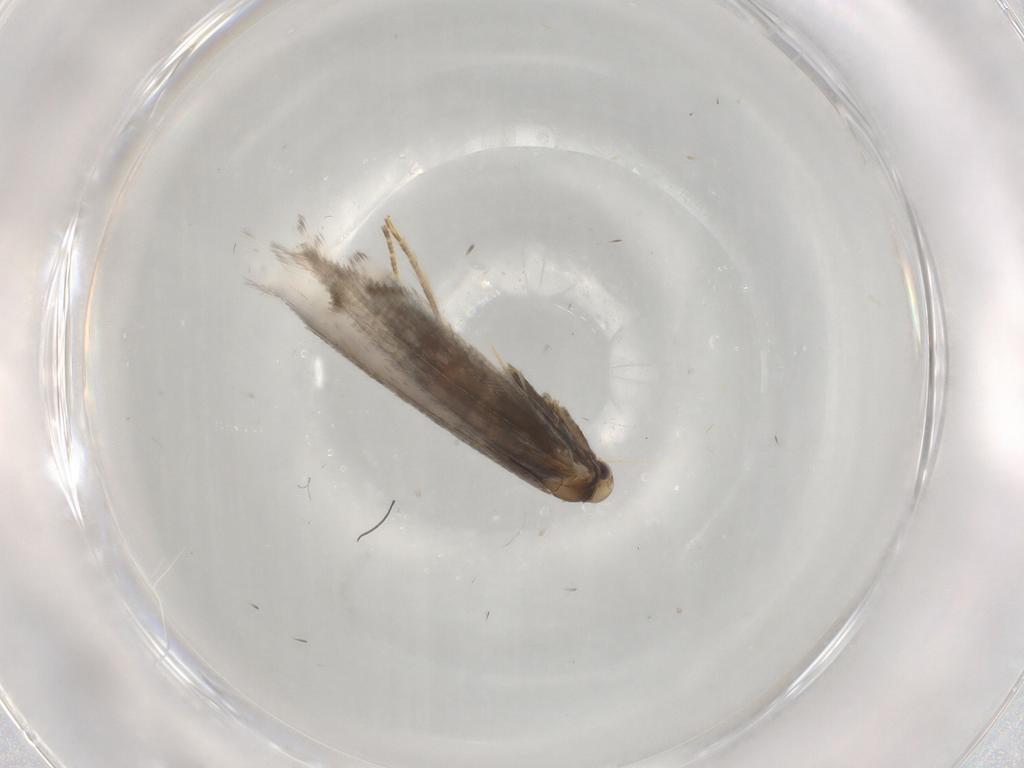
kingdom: Animalia
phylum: Arthropoda
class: Insecta
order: Lepidoptera
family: Gracillariidae
